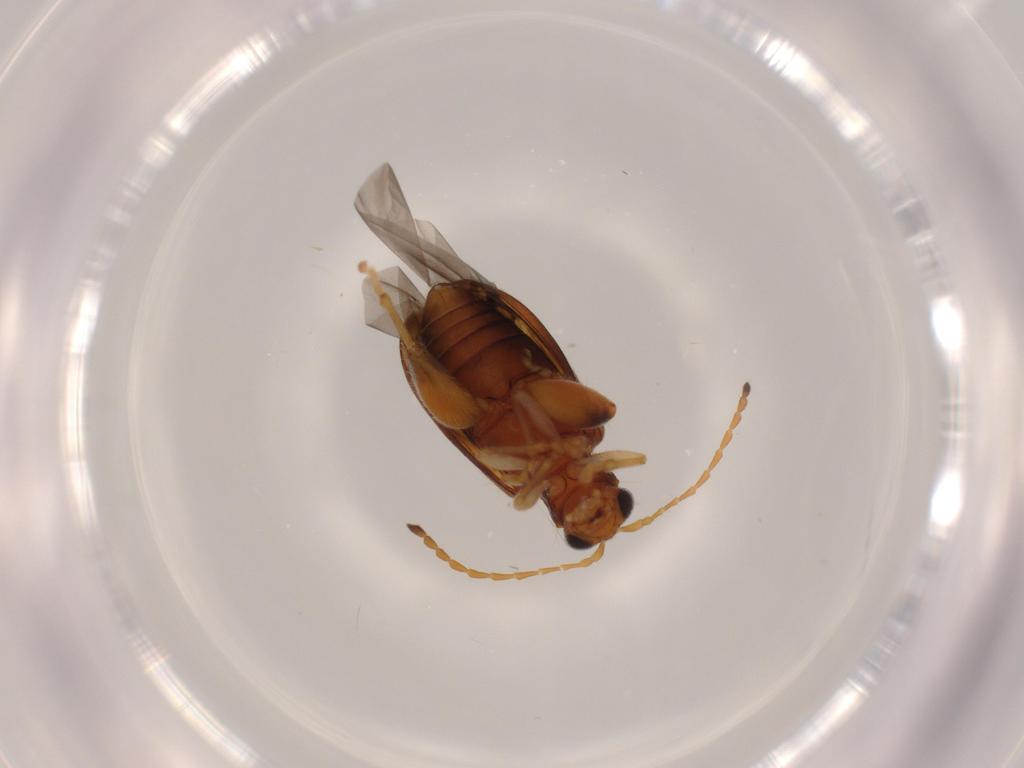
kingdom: Animalia
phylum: Arthropoda
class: Insecta
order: Coleoptera
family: Chrysomelidae
